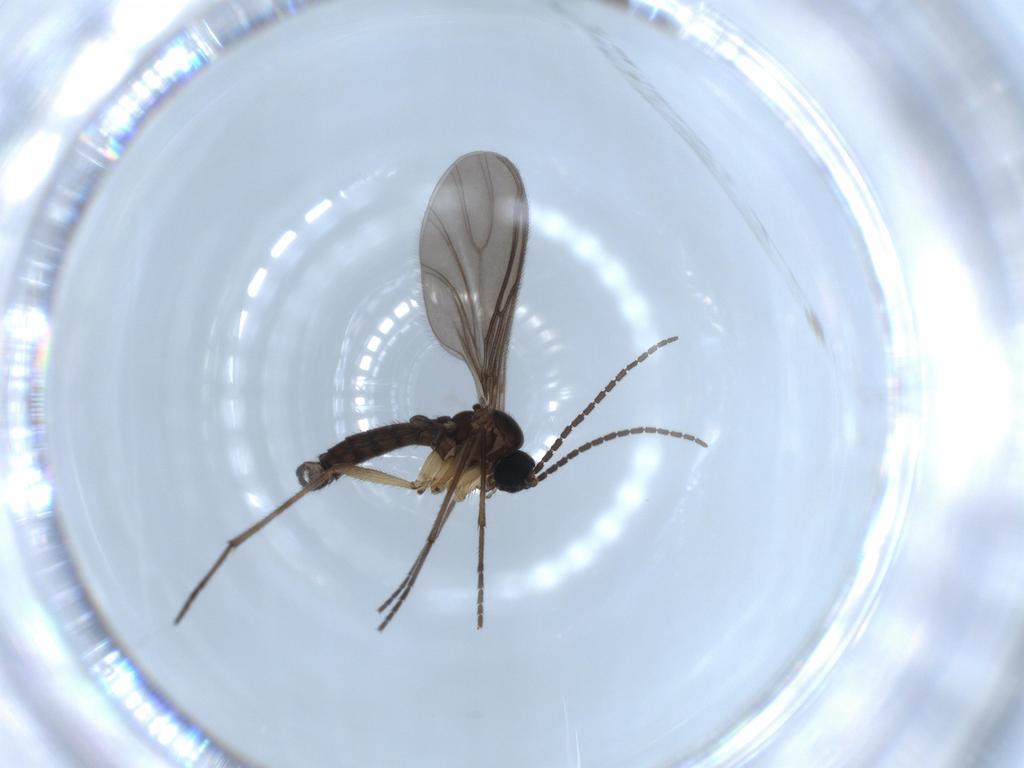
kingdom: Animalia
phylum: Arthropoda
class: Insecta
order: Diptera
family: Sciaridae
